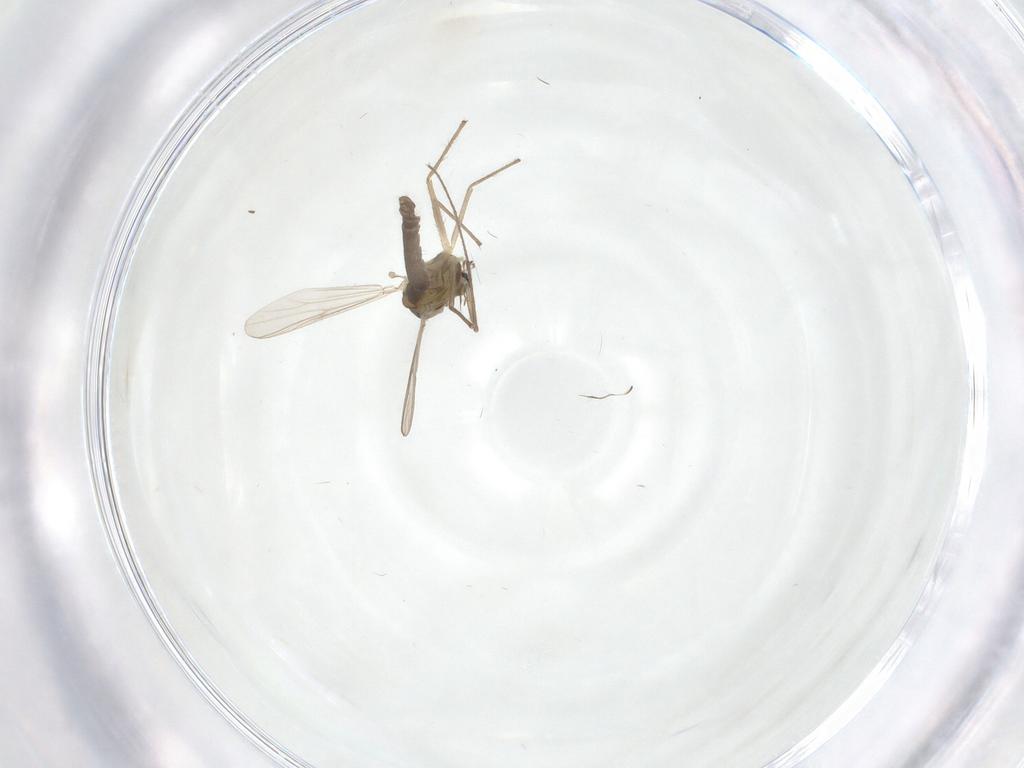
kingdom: Animalia
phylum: Arthropoda
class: Insecta
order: Diptera
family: Chironomidae
